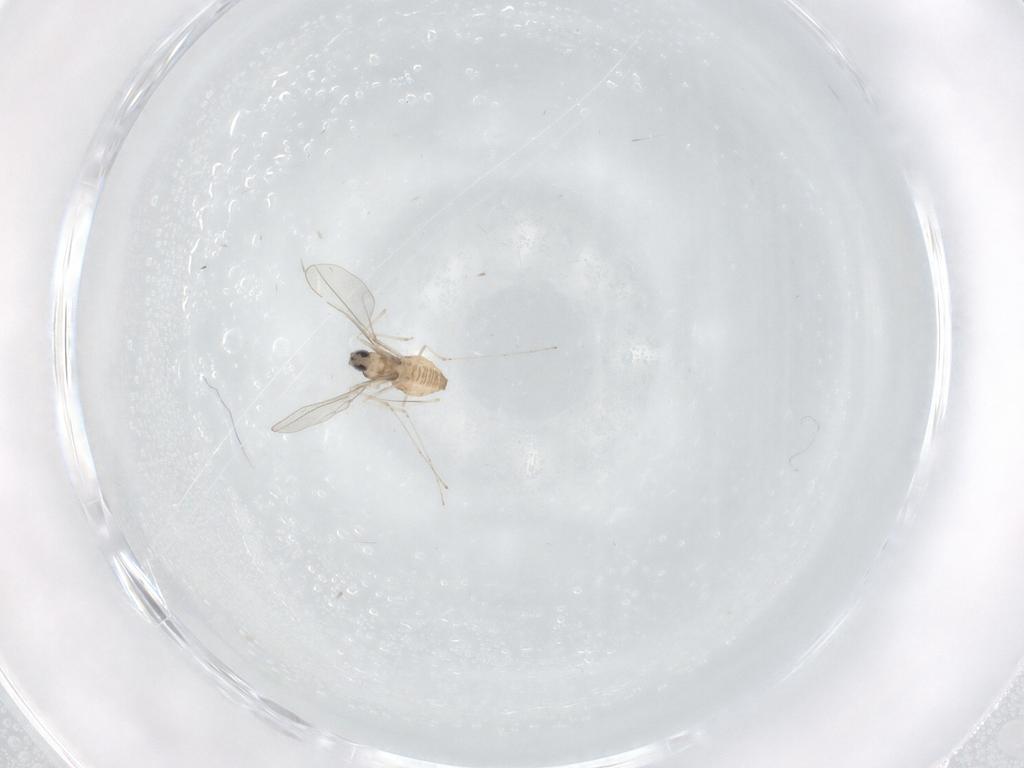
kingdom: Animalia
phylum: Arthropoda
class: Insecta
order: Diptera
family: Cecidomyiidae
